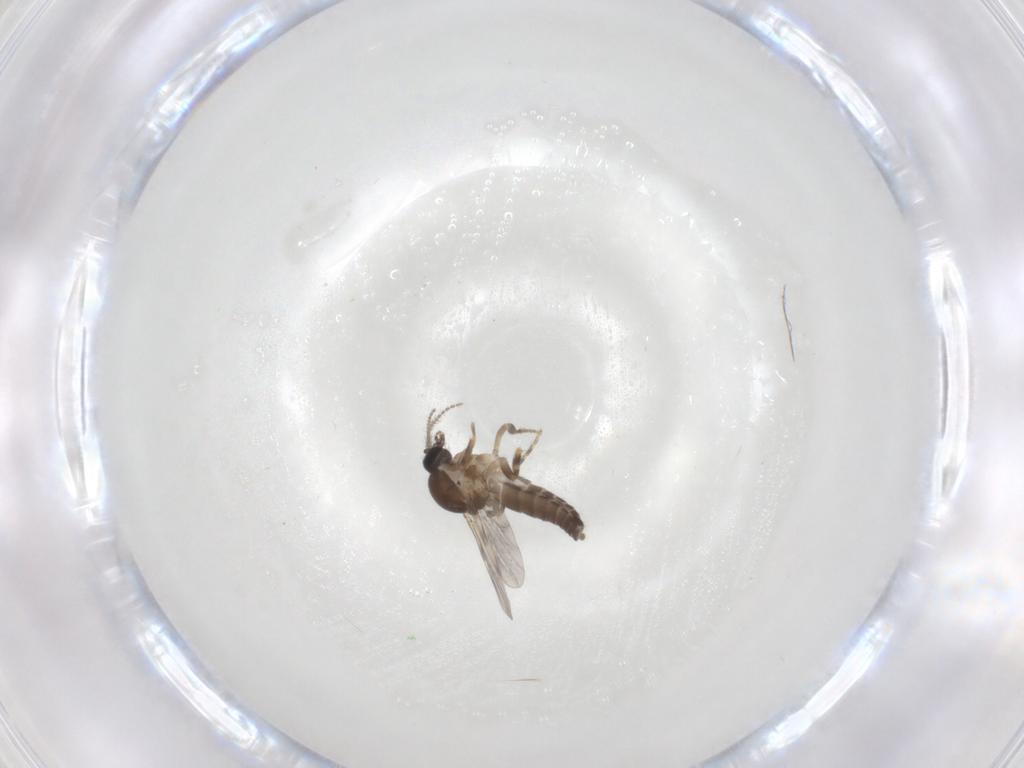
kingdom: Animalia
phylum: Arthropoda
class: Insecta
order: Diptera
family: Ceratopogonidae
